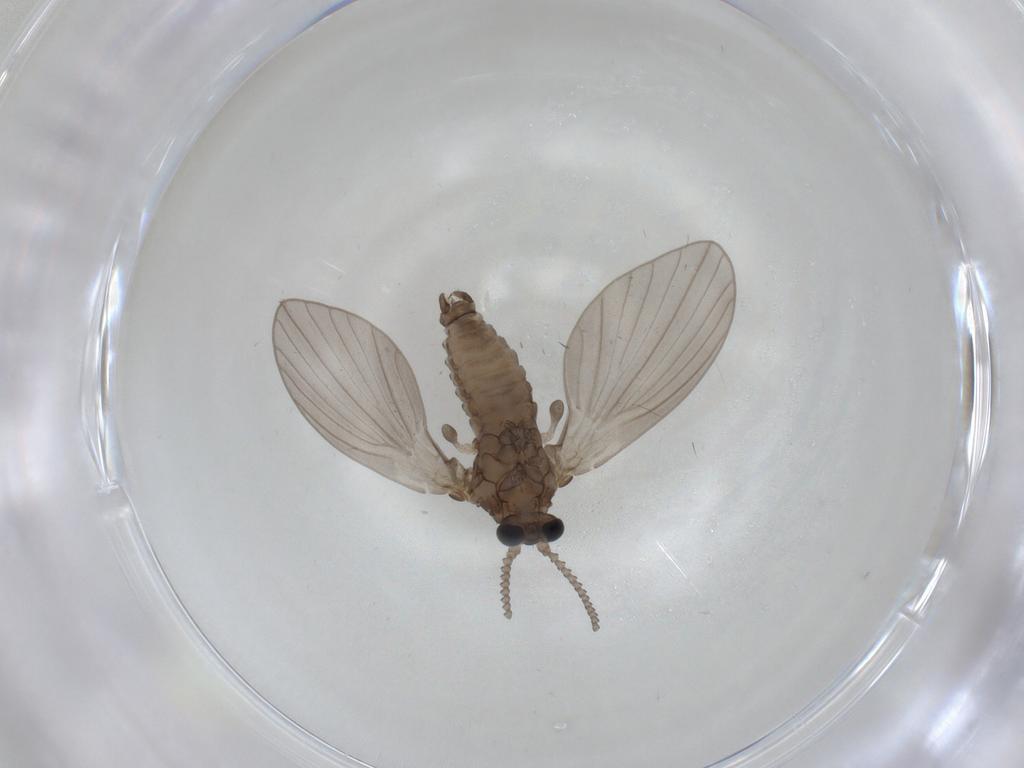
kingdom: Animalia
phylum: Arthropoda
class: Insecta
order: Diptera
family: Psychodidae
